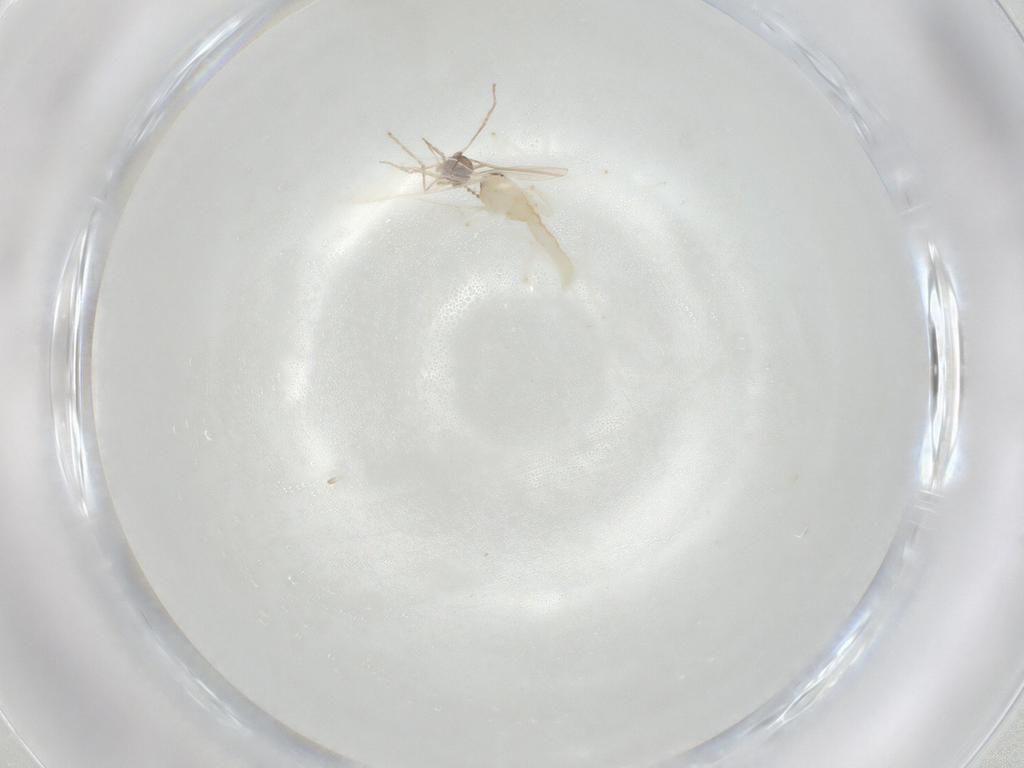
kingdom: Animalia
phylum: Arthropoda
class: Insecta
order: Diptera
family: Cecidomyiidae
